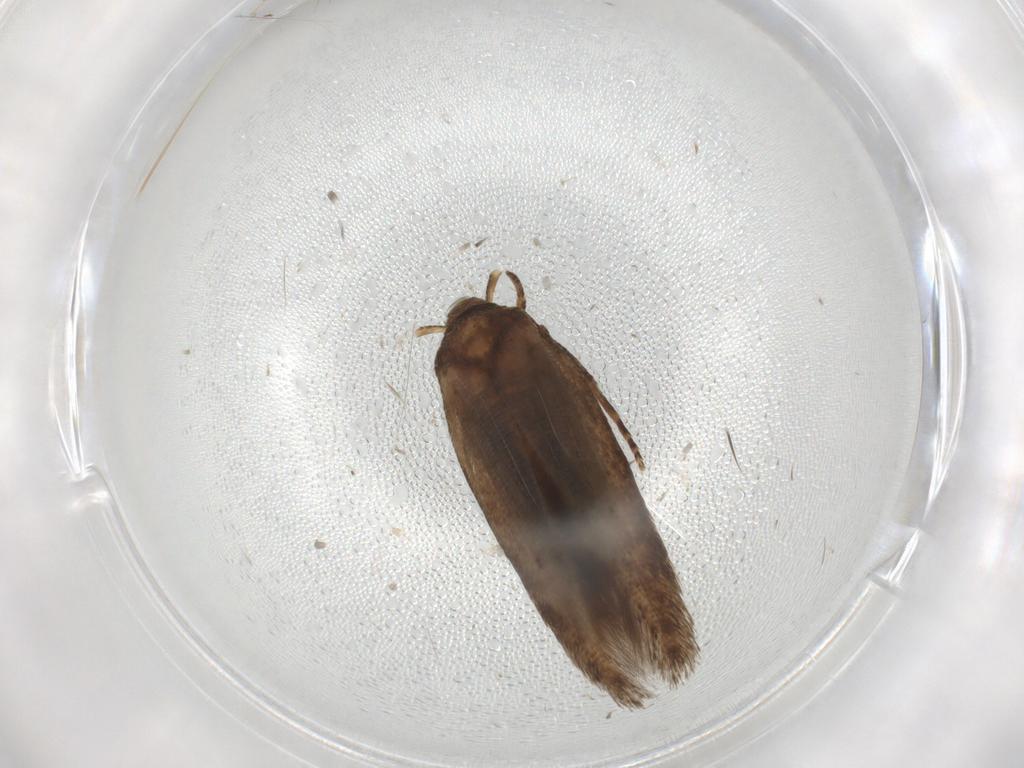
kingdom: Animalia
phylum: Arthropoda
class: Insecta
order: Lepidoptera
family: Cosmopterigidae
